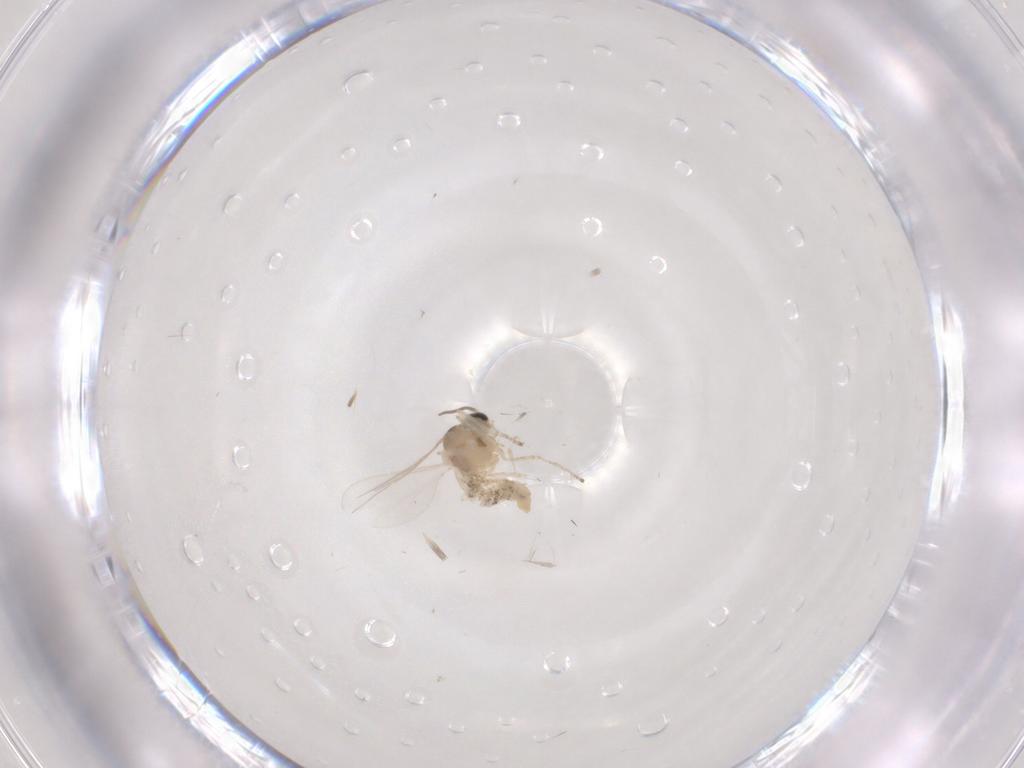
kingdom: Animalia
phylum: Arthropoda
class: Insecta
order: Diptera
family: Cecidomyiidae
